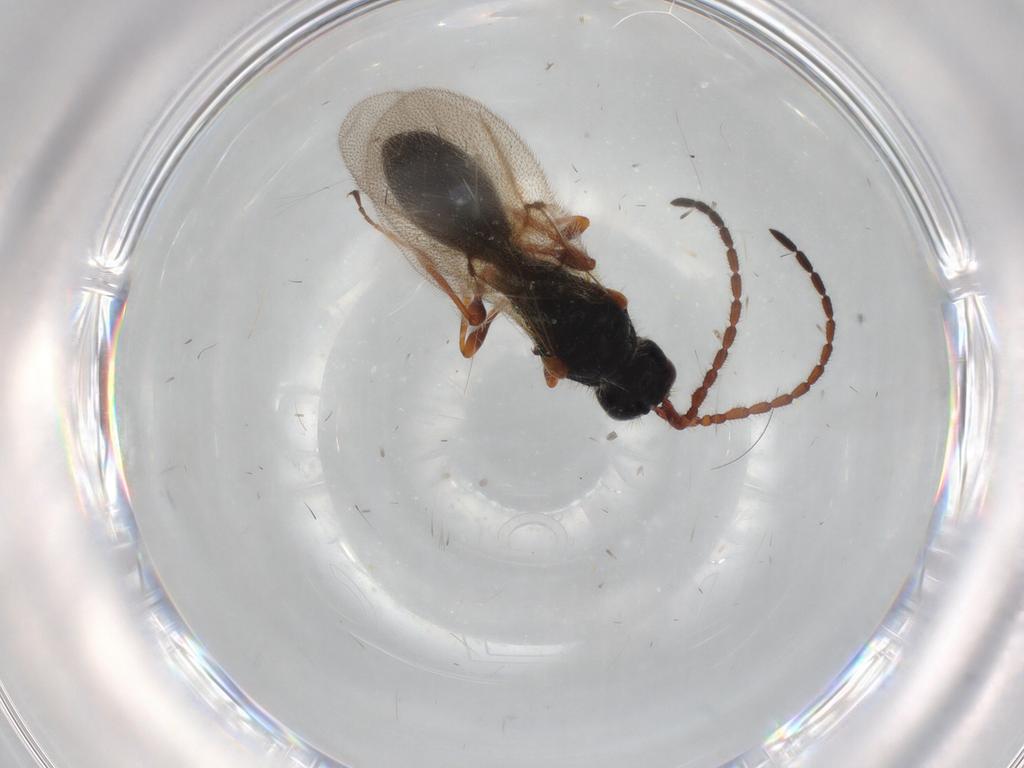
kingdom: Animalia
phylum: Arthropoda
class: Insecta
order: Hymenoptera
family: Diapriidae
